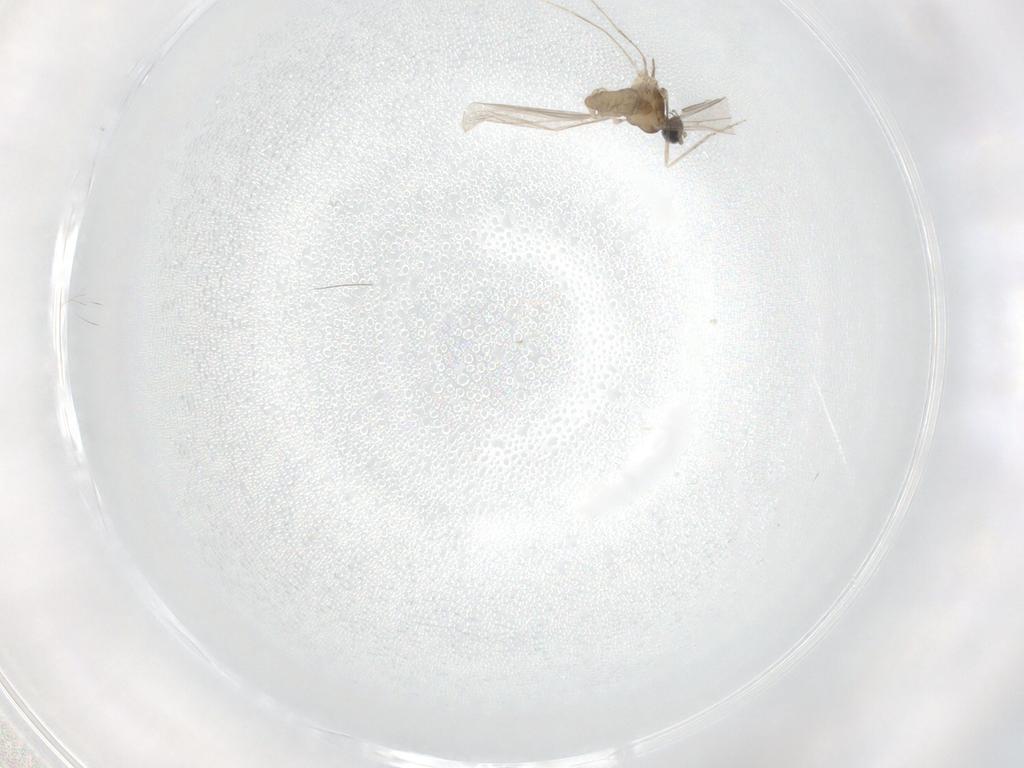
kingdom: Animalia
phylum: Arthropoda
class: Insecta
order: Diptera
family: Cecidomyiidae
